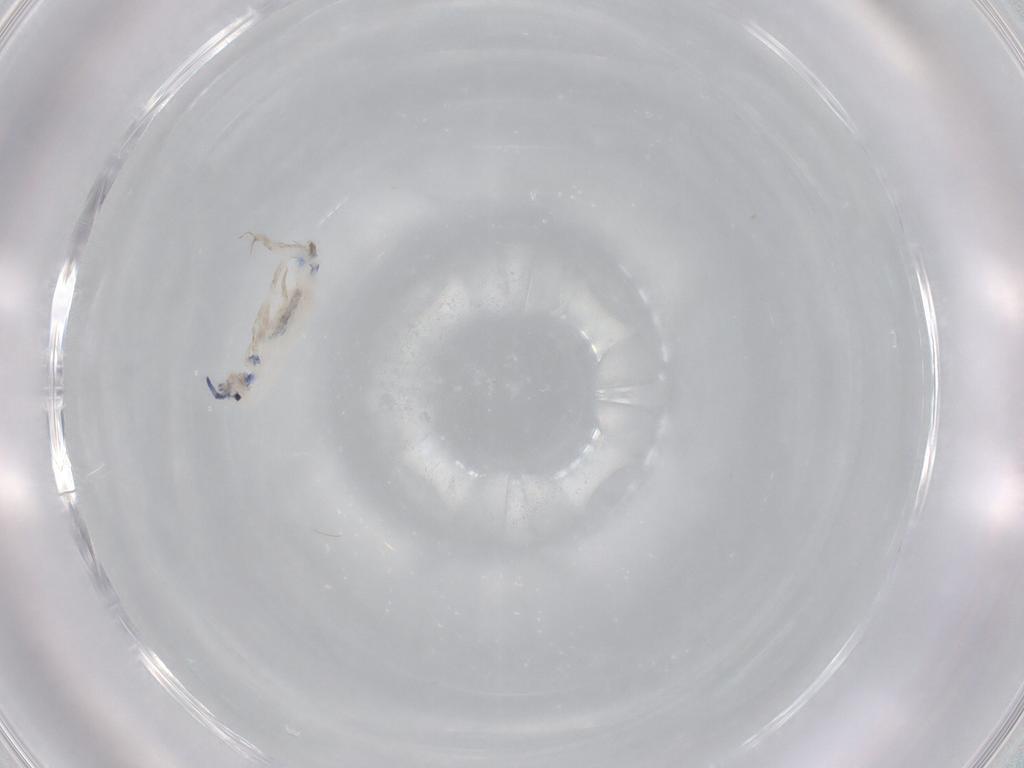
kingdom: Animalia
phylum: Arthropoda
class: Collembola
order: Entomobryomorpha
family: Entomobryidae
